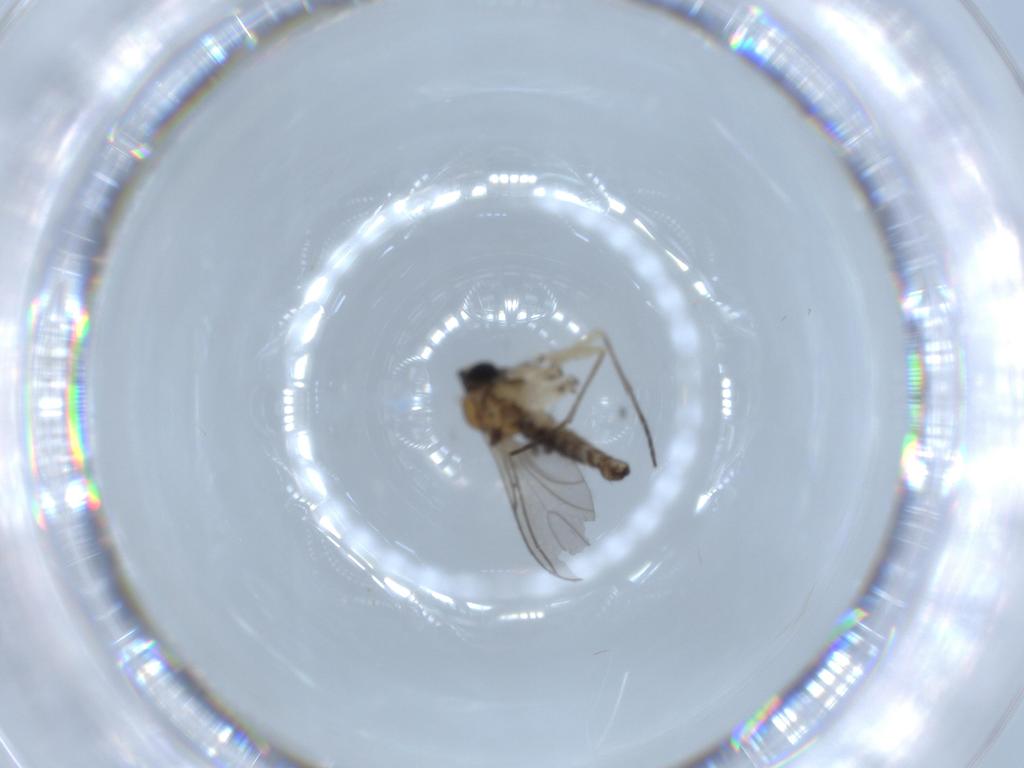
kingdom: Animalia
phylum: Arthropoda
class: Insecta
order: Diptera
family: Sciaridae
